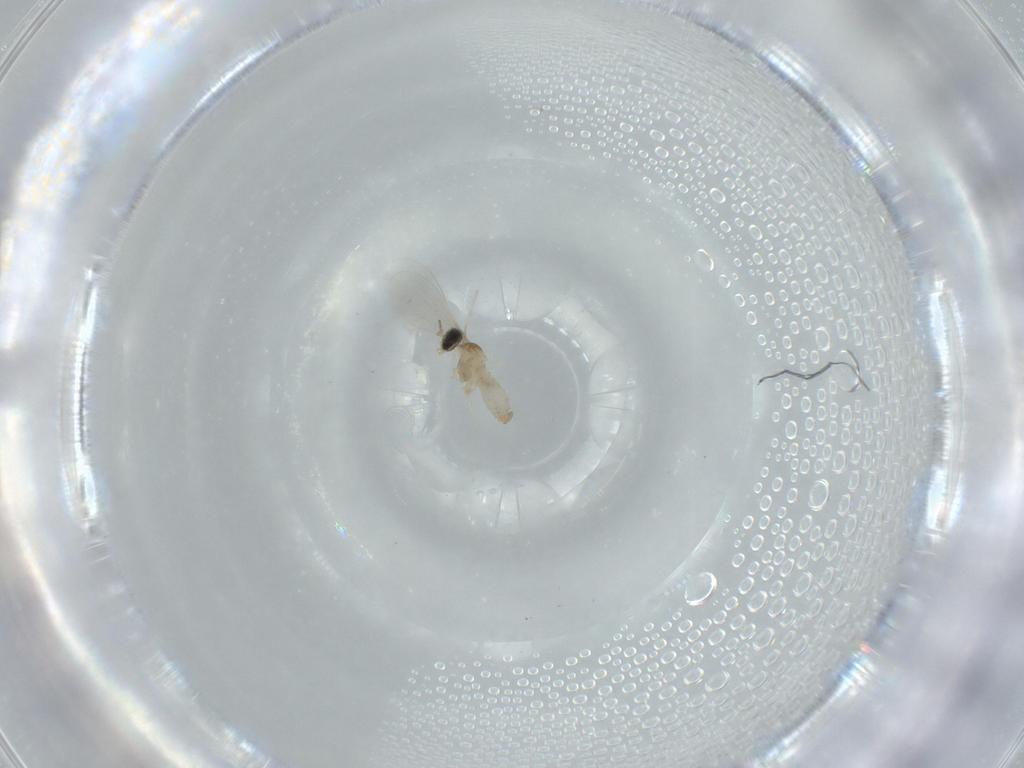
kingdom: Animalia
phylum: Arthropoda
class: Insecta
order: Diptera
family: Cecidomyiidae
